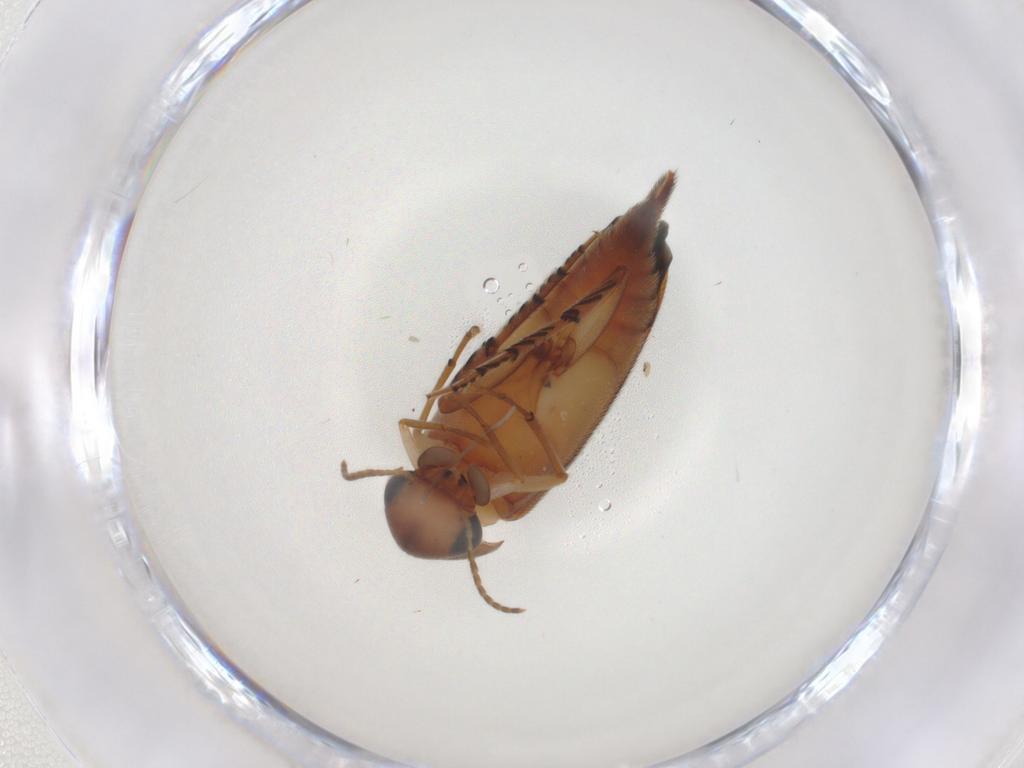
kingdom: Animalia
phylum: Arthropoda
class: Insecta
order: Coleoptera
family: Mordellidae
